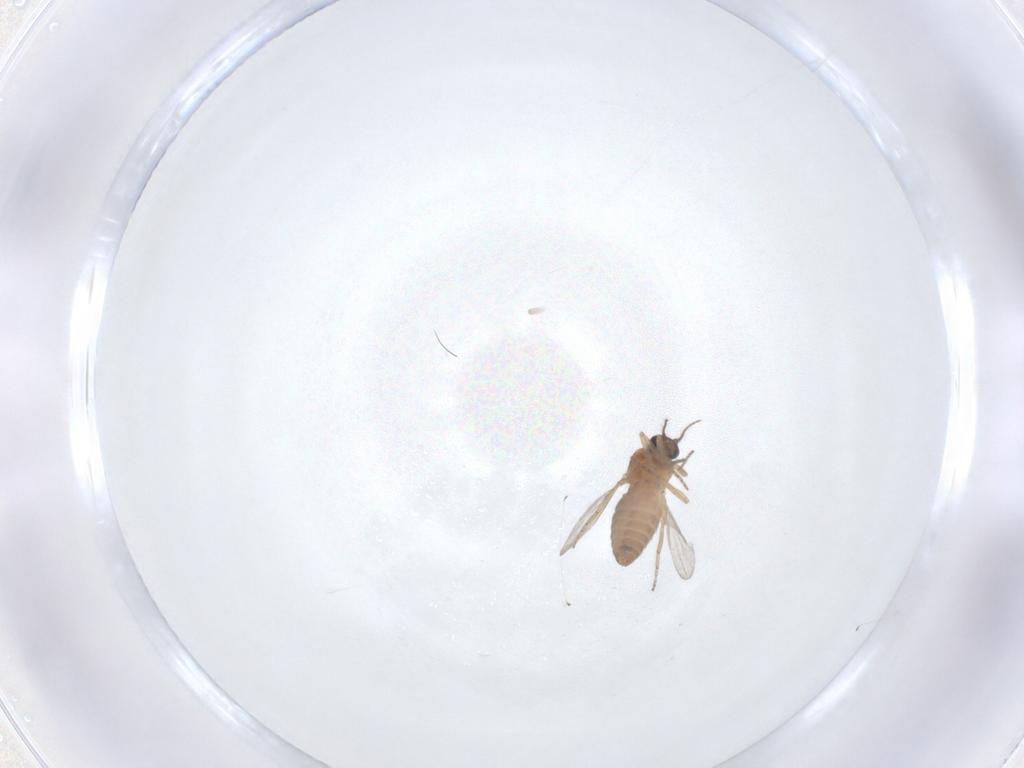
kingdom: Animalia
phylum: Arthropoda
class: Insecta
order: Diptera
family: Ceratopogonidae
